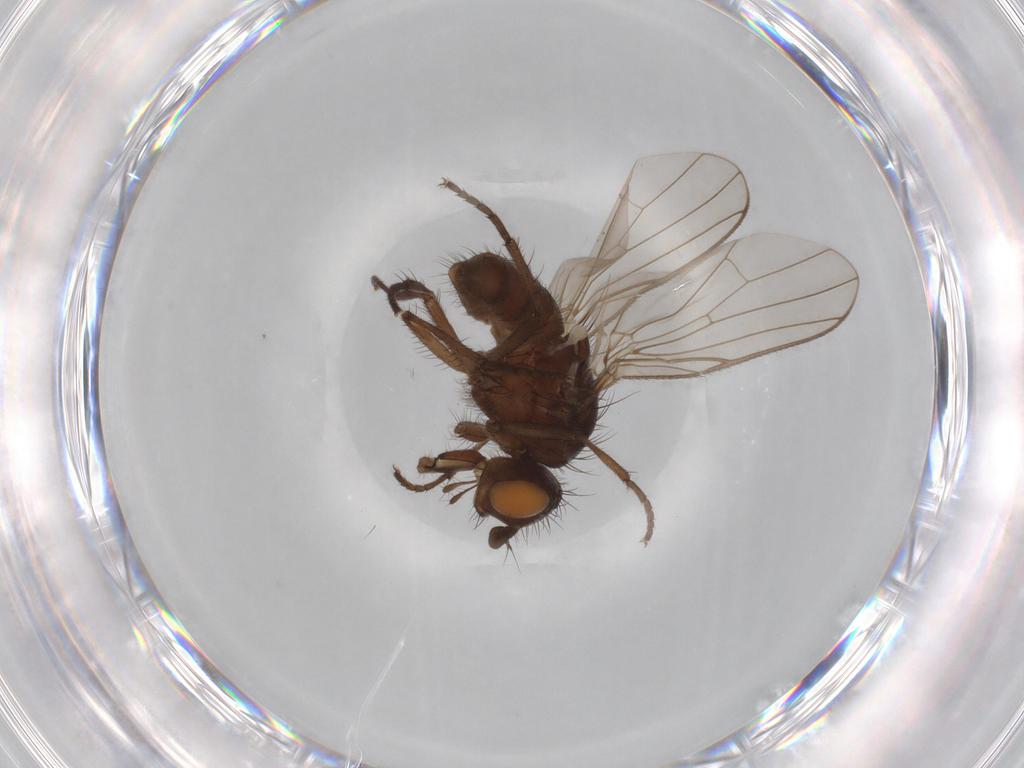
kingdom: Animalia
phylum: Arthropoda
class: Insecta
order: Diptera
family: Anthomyiidae
